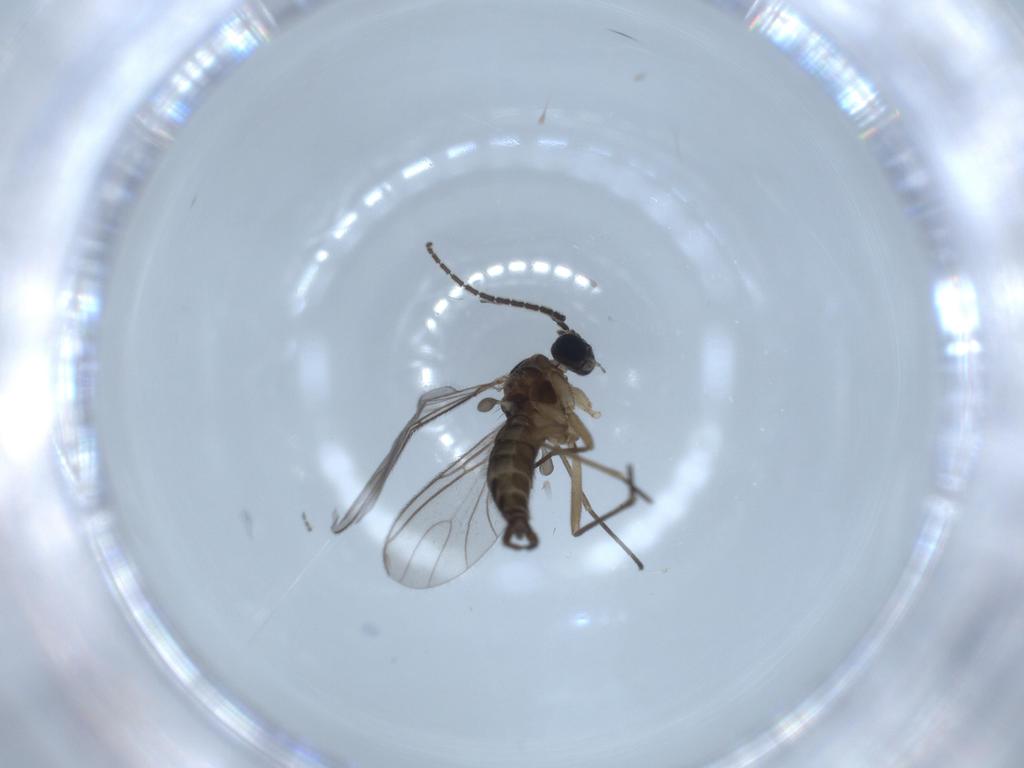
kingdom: Animalia
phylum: Arthropoda
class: Insecta
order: Diptera
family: Sciaridae
